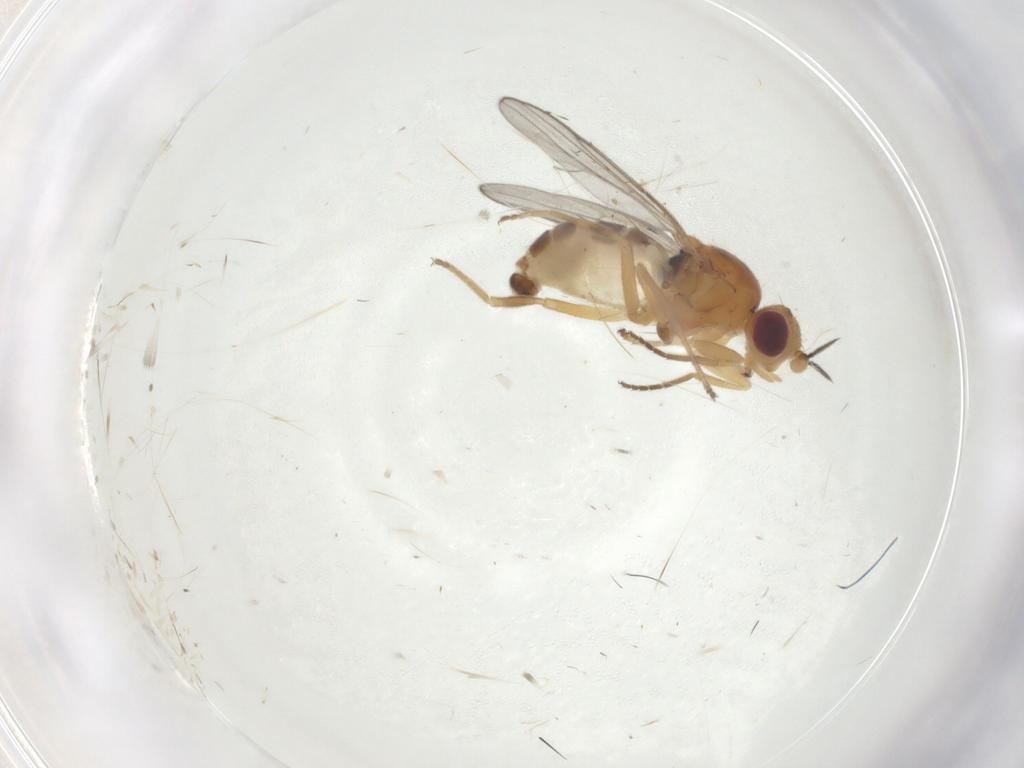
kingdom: Animalia
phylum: Arthropoda
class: Insecta
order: Diptera
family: Chloropidae
